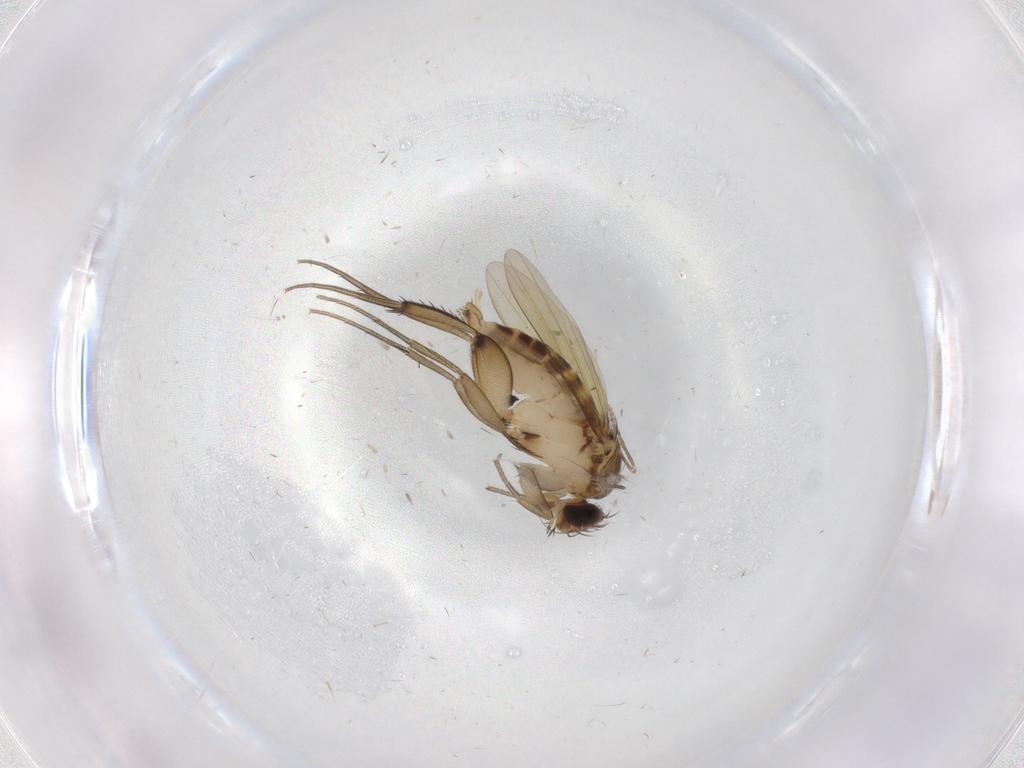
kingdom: Animalia
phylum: Arthropoda
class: Insecta
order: Diptera
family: Phoridae
